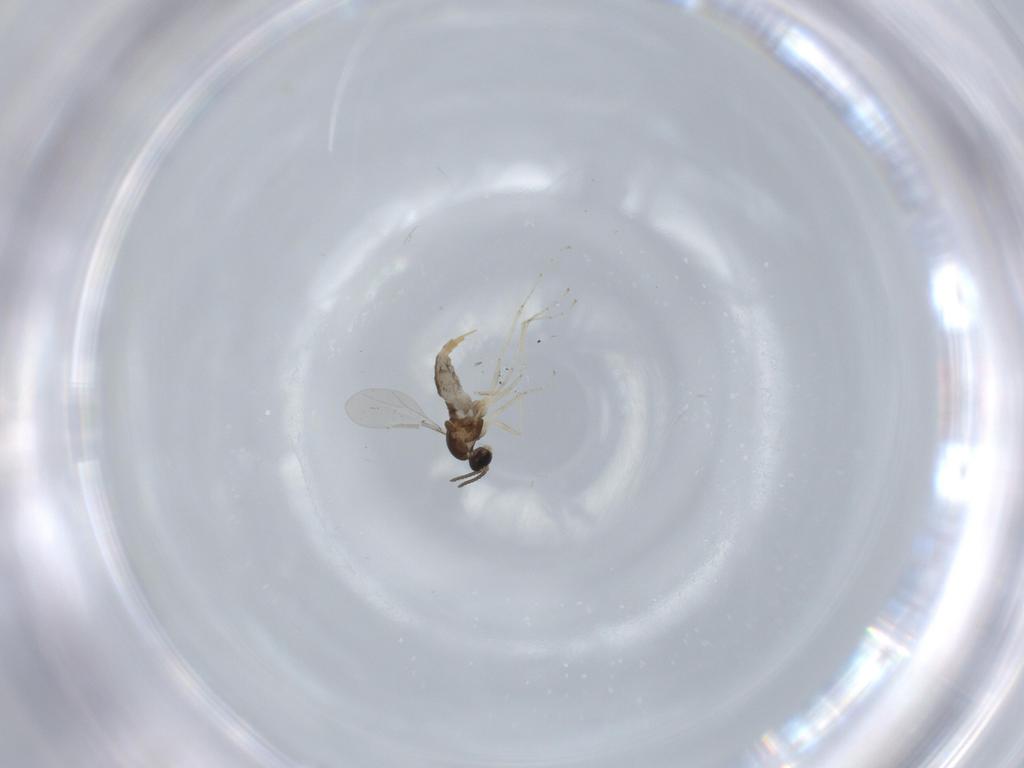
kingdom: Animalia
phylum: Arthropoda
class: Insecta
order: Diptera
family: Cecidomyiidae
